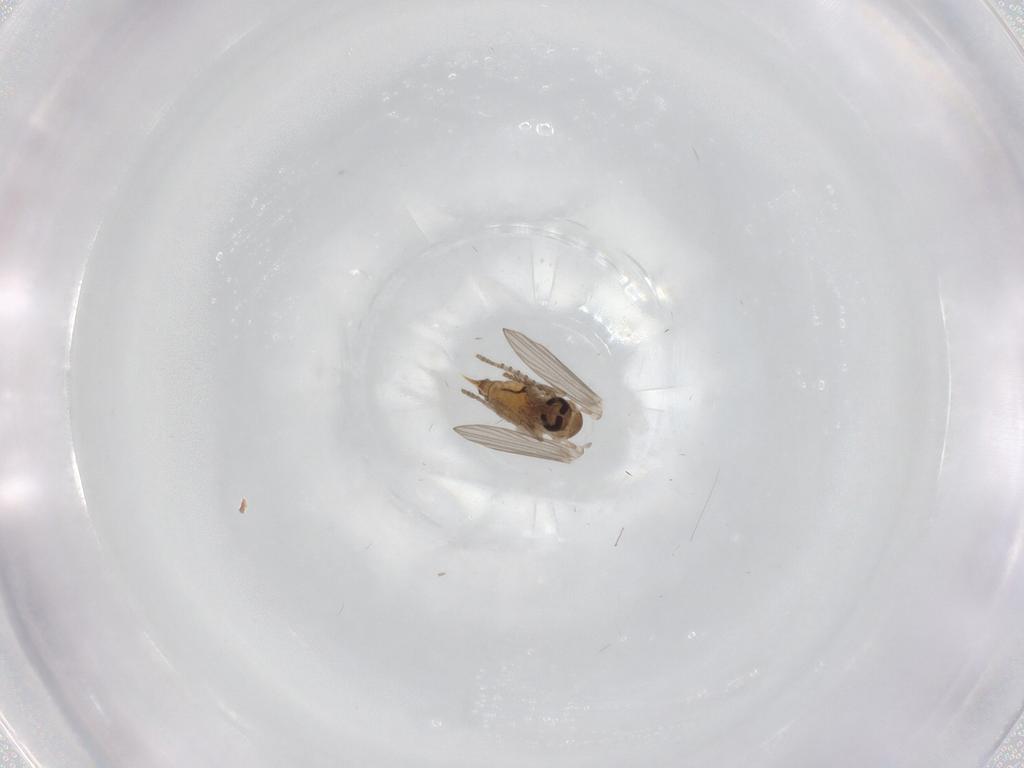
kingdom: Animalia
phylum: Arthropoda
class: Insecta
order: Diptera
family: Psychodidae
